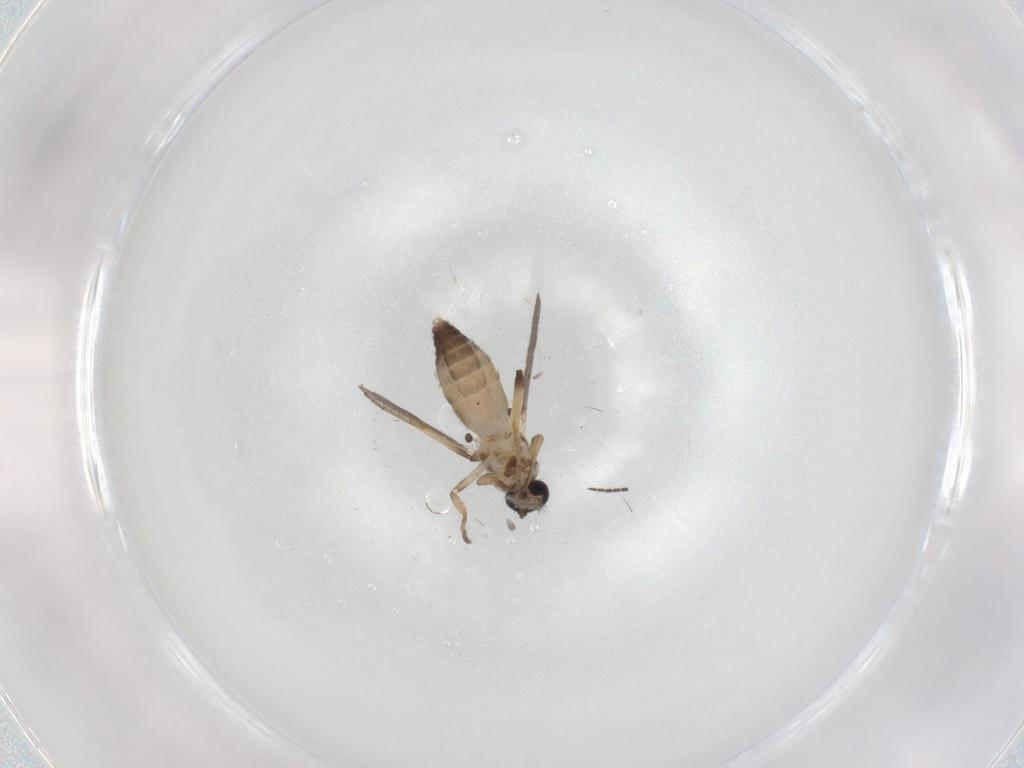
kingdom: Animalia
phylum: Arthropoda
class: Insecta
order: Diptera
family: Ceratopogonidae
